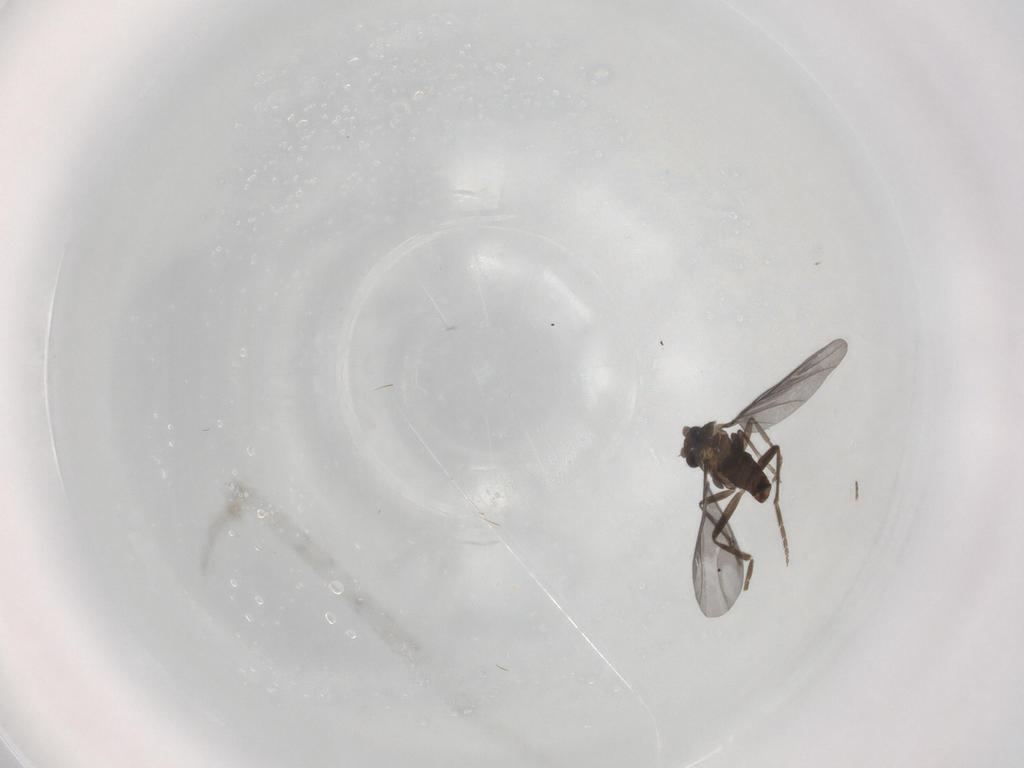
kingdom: Animalia
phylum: Arthropoda
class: Insecta
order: Diptera
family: Phoridae
